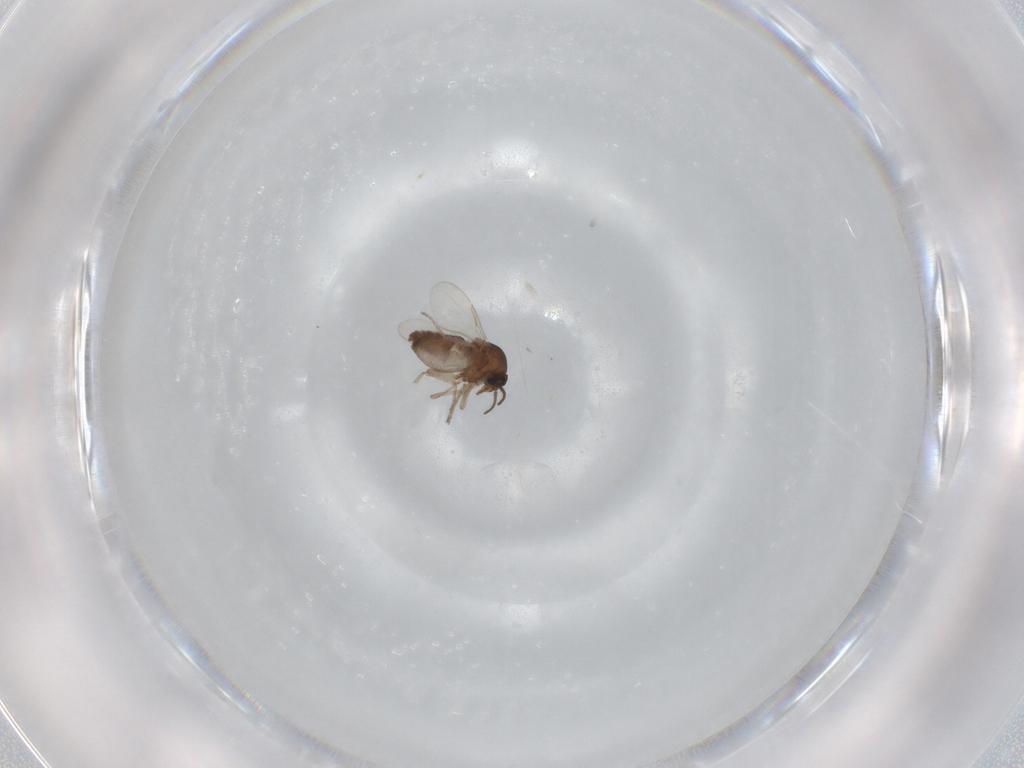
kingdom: Animalia
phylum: Arthropoda
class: Insecta
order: Diptera
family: Ceratopogonidae
